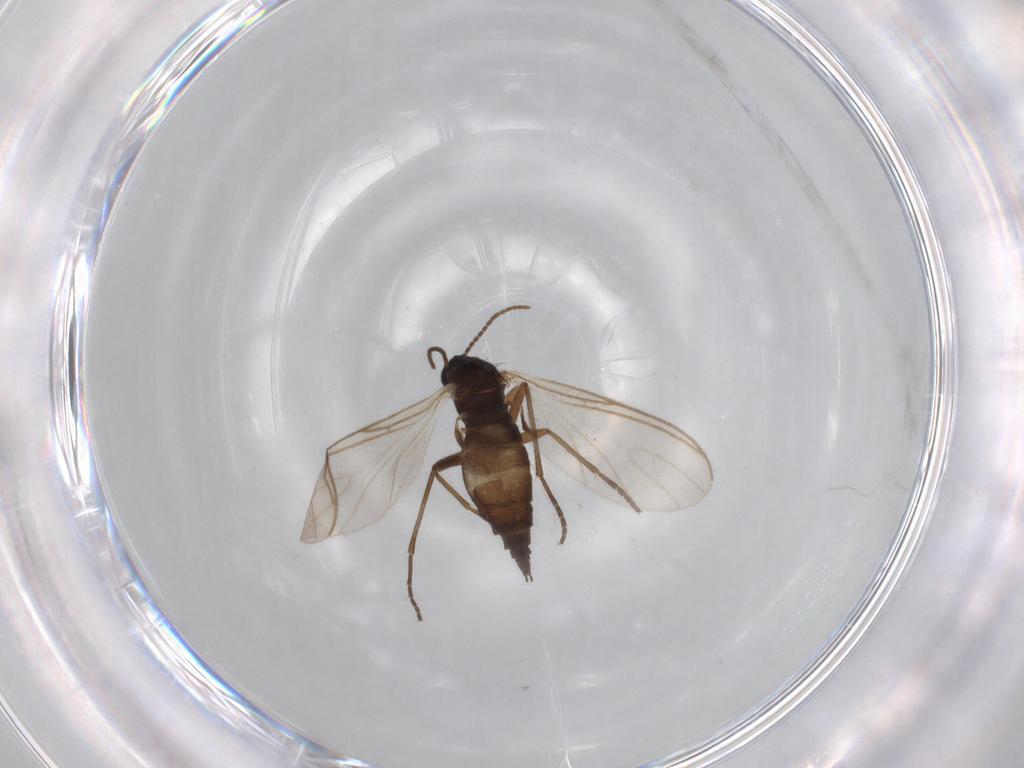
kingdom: Animalia
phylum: Arthropoda
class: Insecta
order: Diptera
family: Sciaridae
